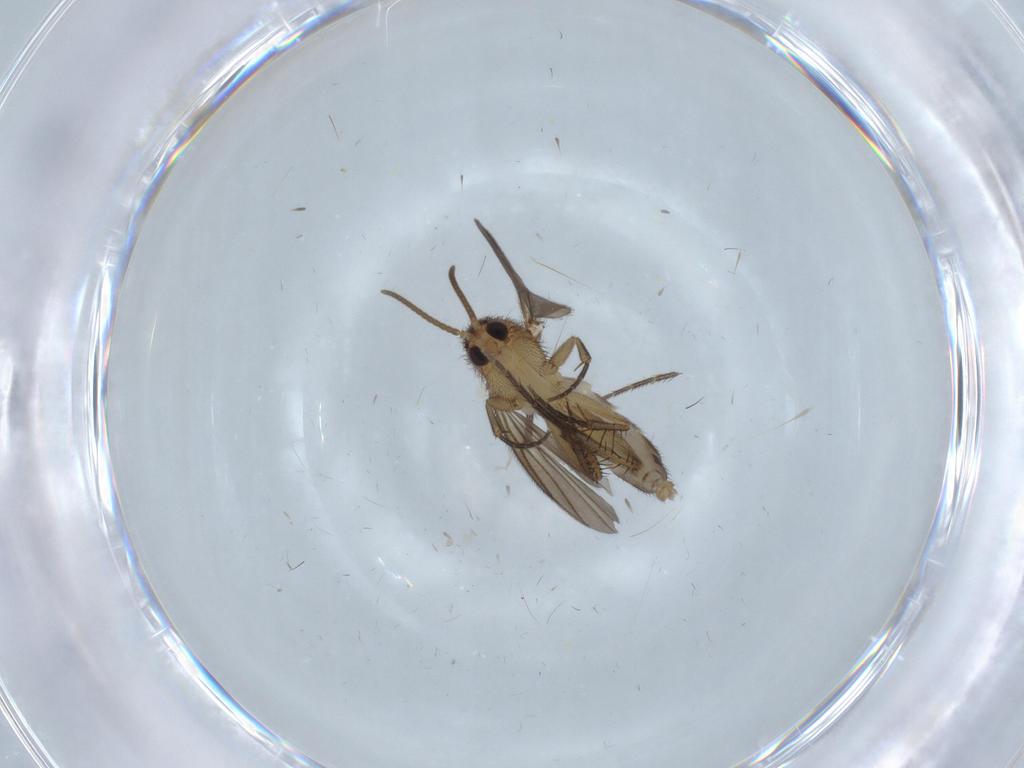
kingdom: Animalia
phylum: Arthropoda
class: Insecta
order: Diptera
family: Mycetophilidae
